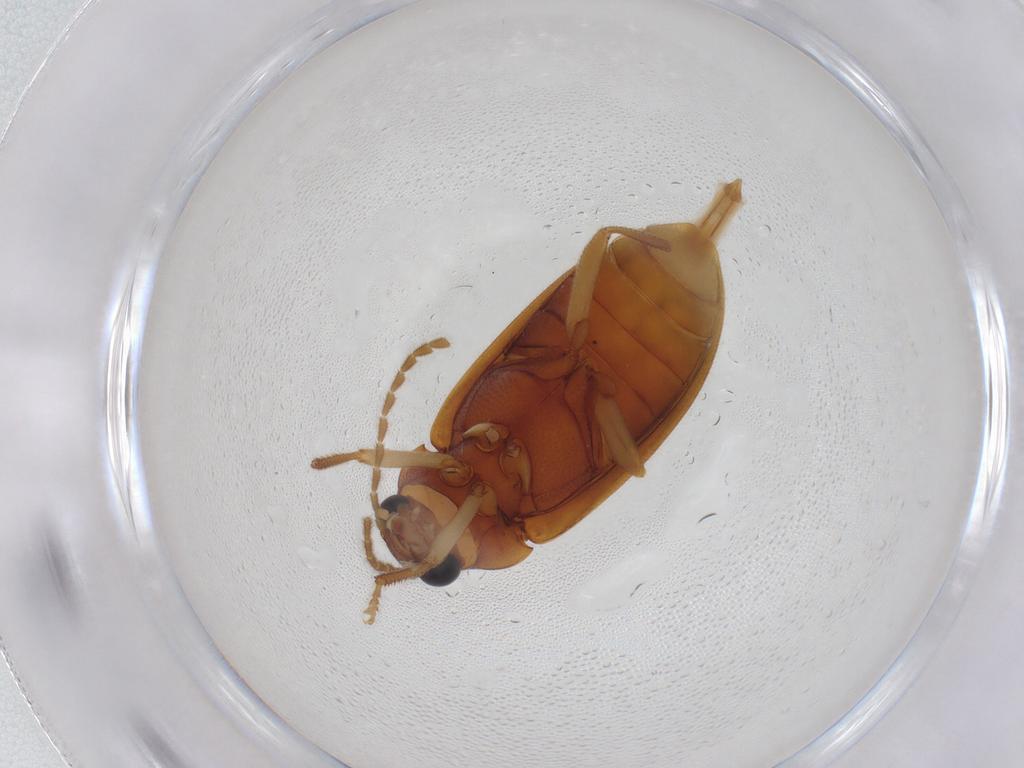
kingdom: Animalia
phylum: Arthropoda
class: Insecta
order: Coleoptera
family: Ptilodactylidae
